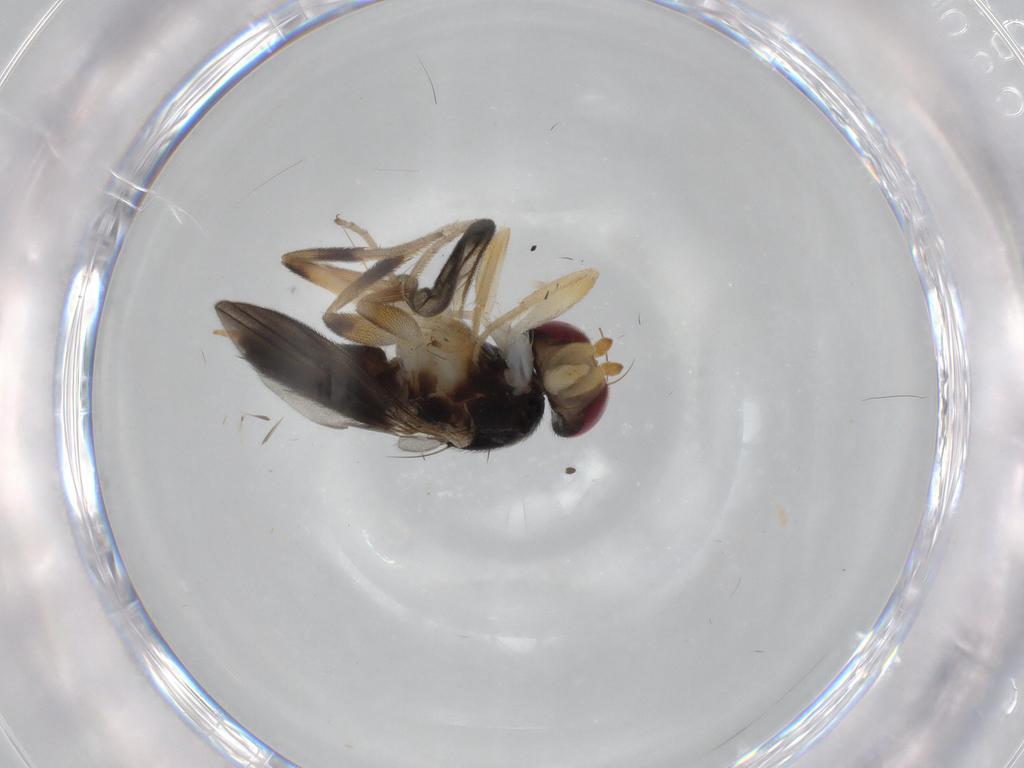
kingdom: Animalia
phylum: Arthropoda
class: Insecta
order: Diptera
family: Clusiidae
